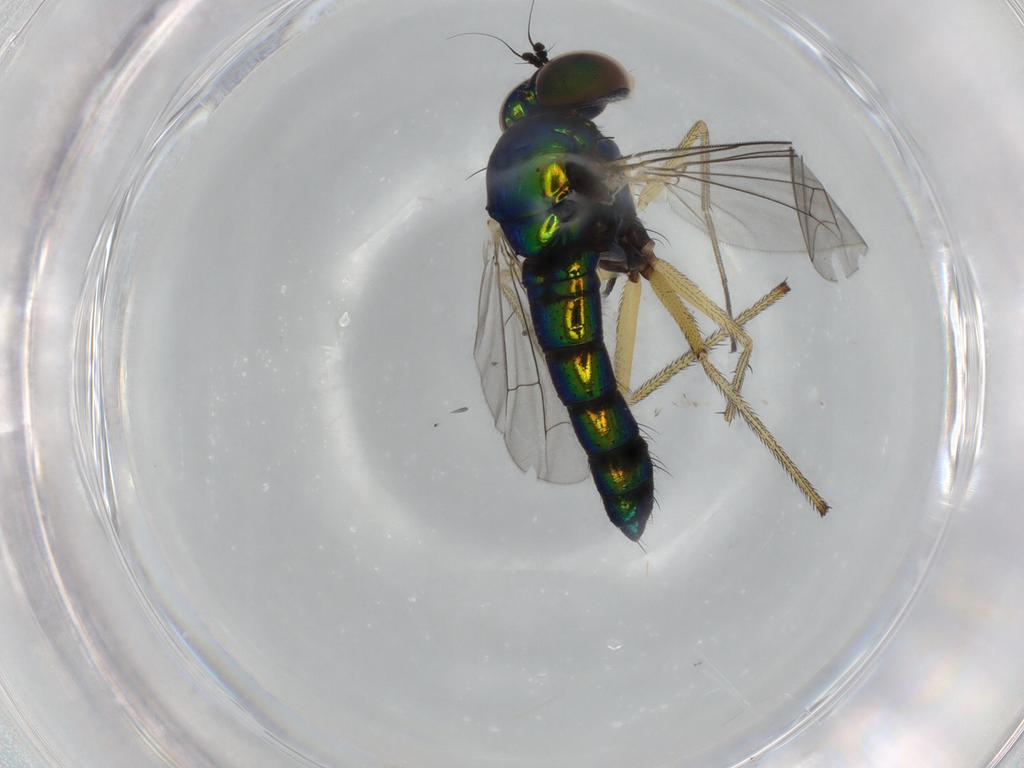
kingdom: Animalia
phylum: Arthropoda
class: Insecta
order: Diptera
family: Dolichopodidae
